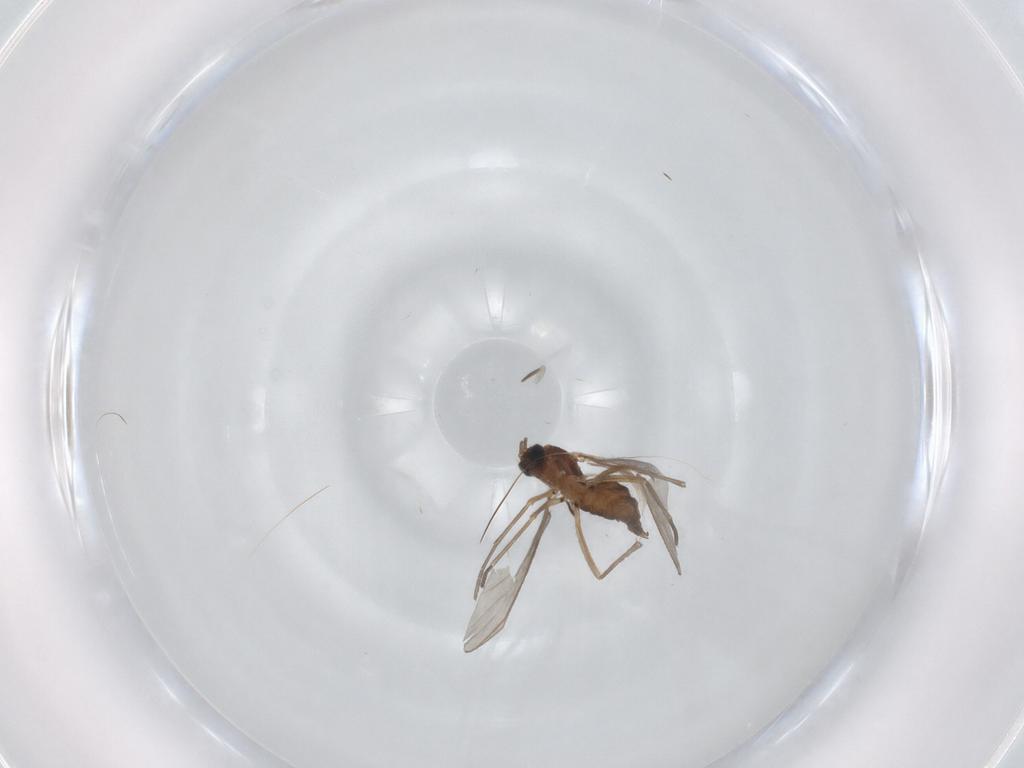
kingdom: Animalia
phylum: Arthropoda
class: Insecta
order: Diptera
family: Sciaridae
